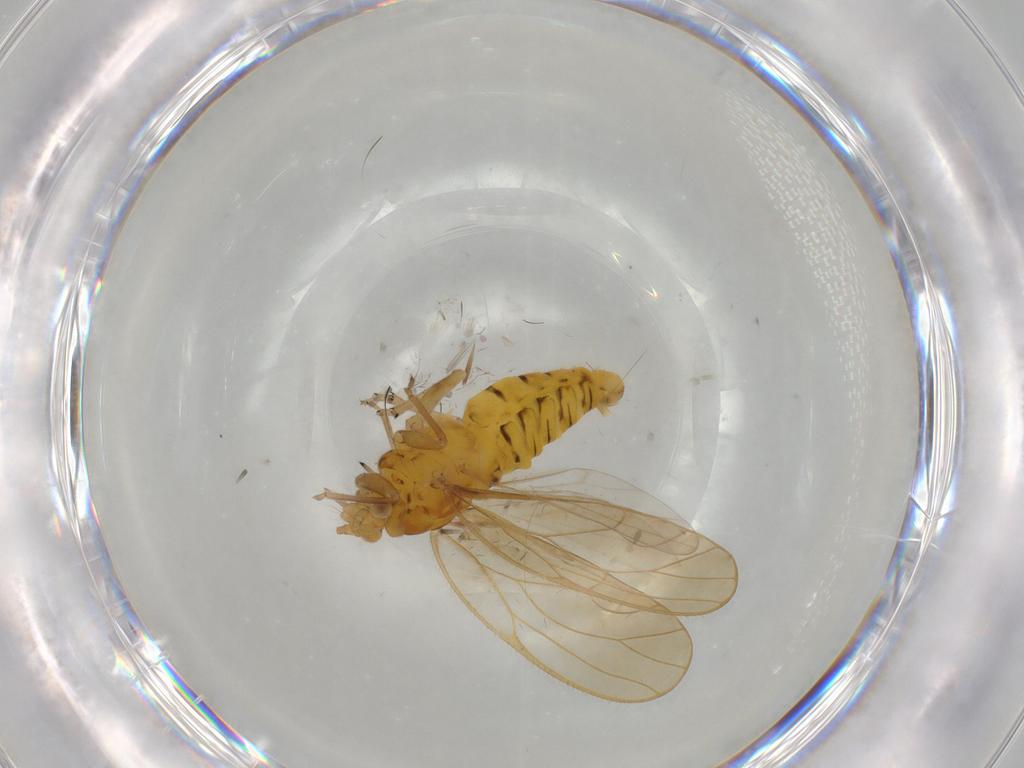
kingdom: Animalia
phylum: Arthropoda
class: Insecta
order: Diptera
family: Cecidomyiidae
